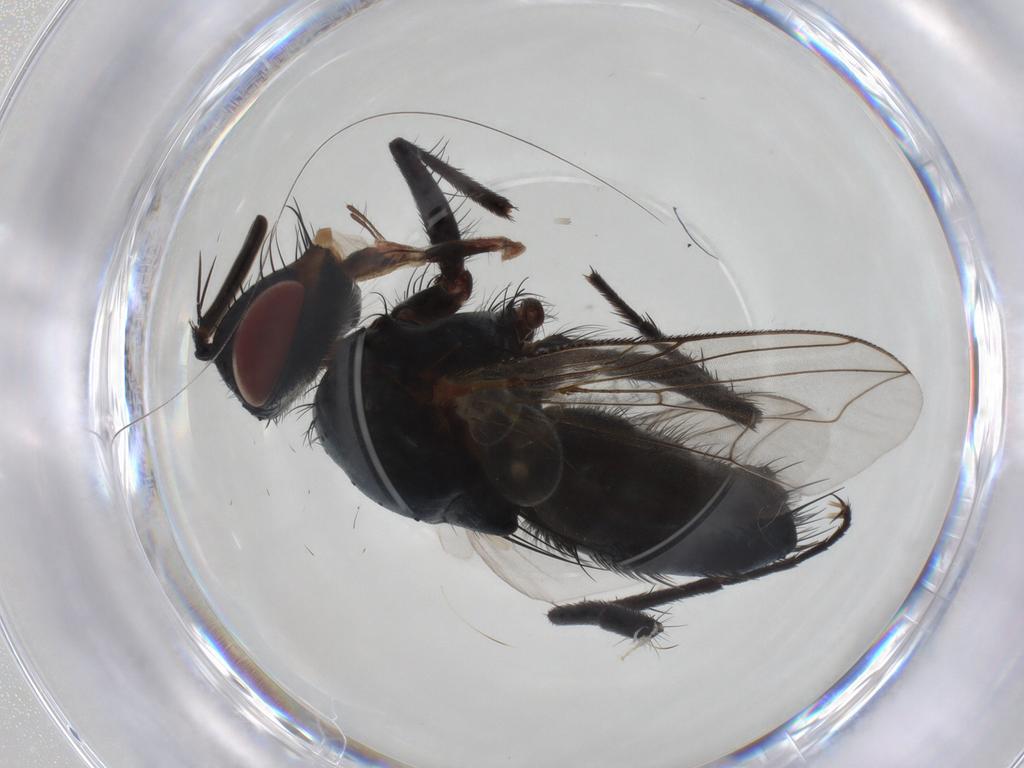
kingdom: Animalia
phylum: Arthropoda
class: Insecta
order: Diptera
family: Tachinidae
